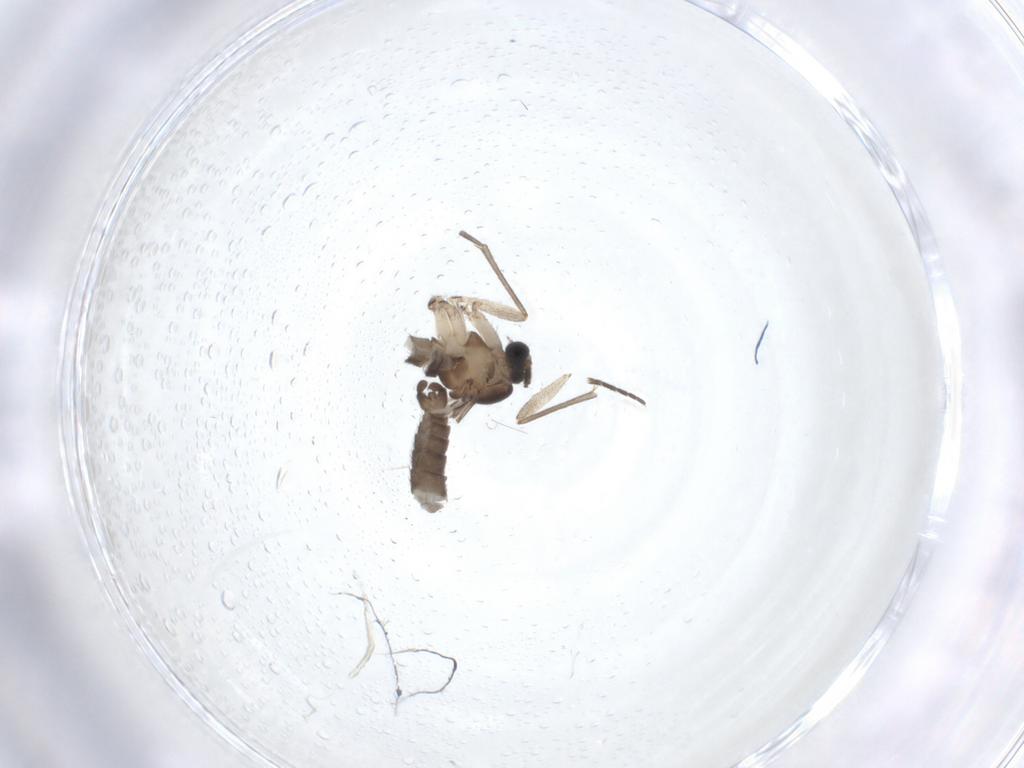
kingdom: Animalia
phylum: Arthropoda
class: Insecta
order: Diptera
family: Sciaridae
